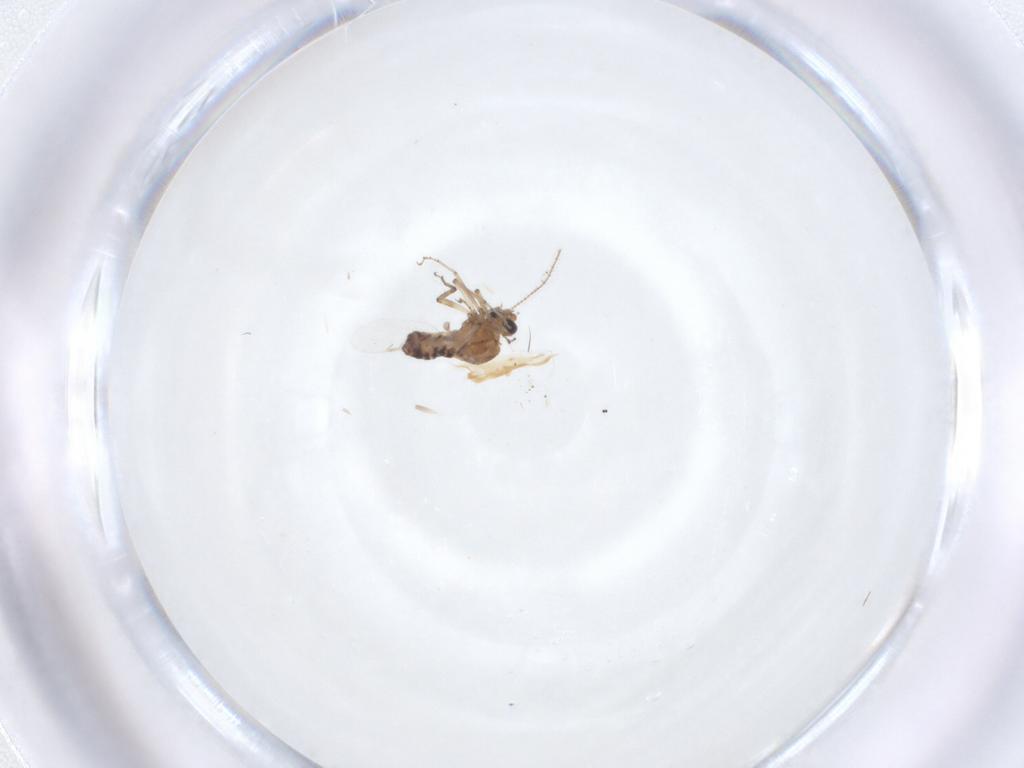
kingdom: Animalia
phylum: Arthropoda
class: Insecta
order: Diptera
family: Ceratopogonidae
